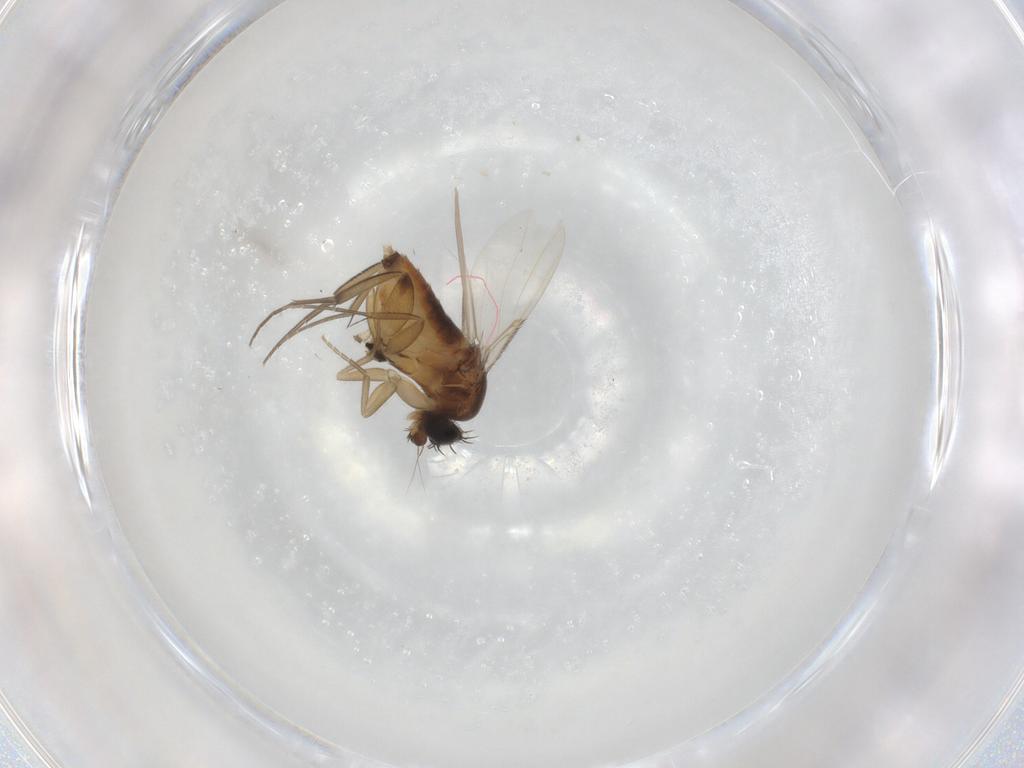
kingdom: Animalia
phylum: Arthropoda
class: Insecta
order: Diptera
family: Phoridae
